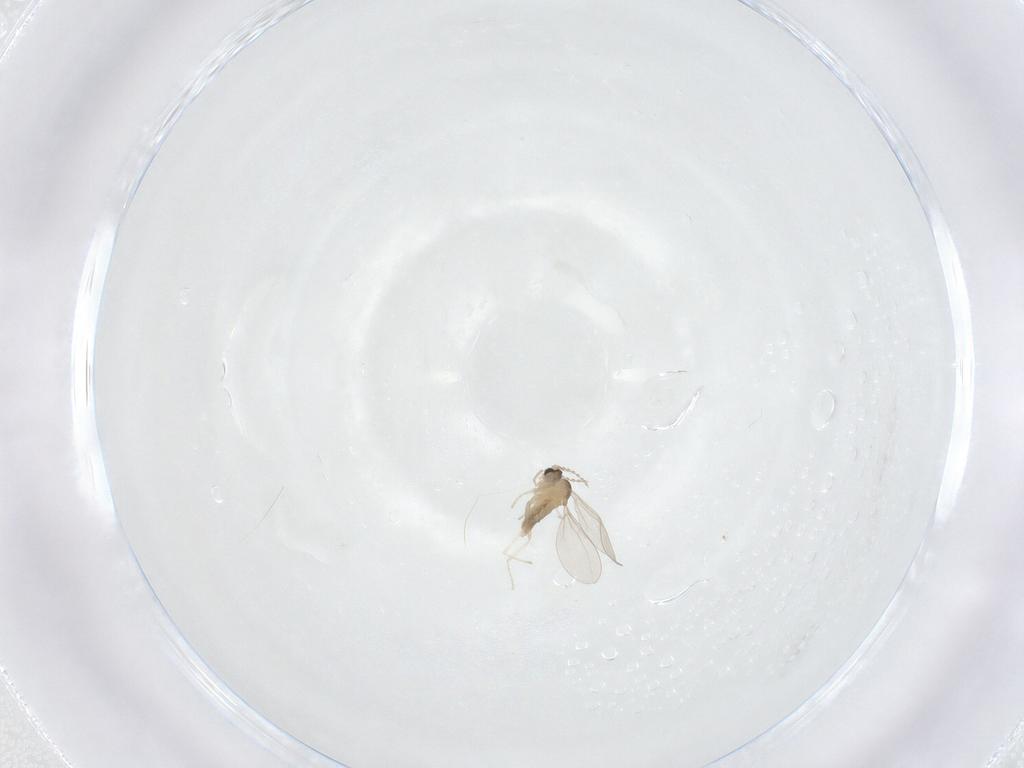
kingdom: Animalia
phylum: Arthropoda
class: Insecta
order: Diptera
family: Cecidomyiidae
